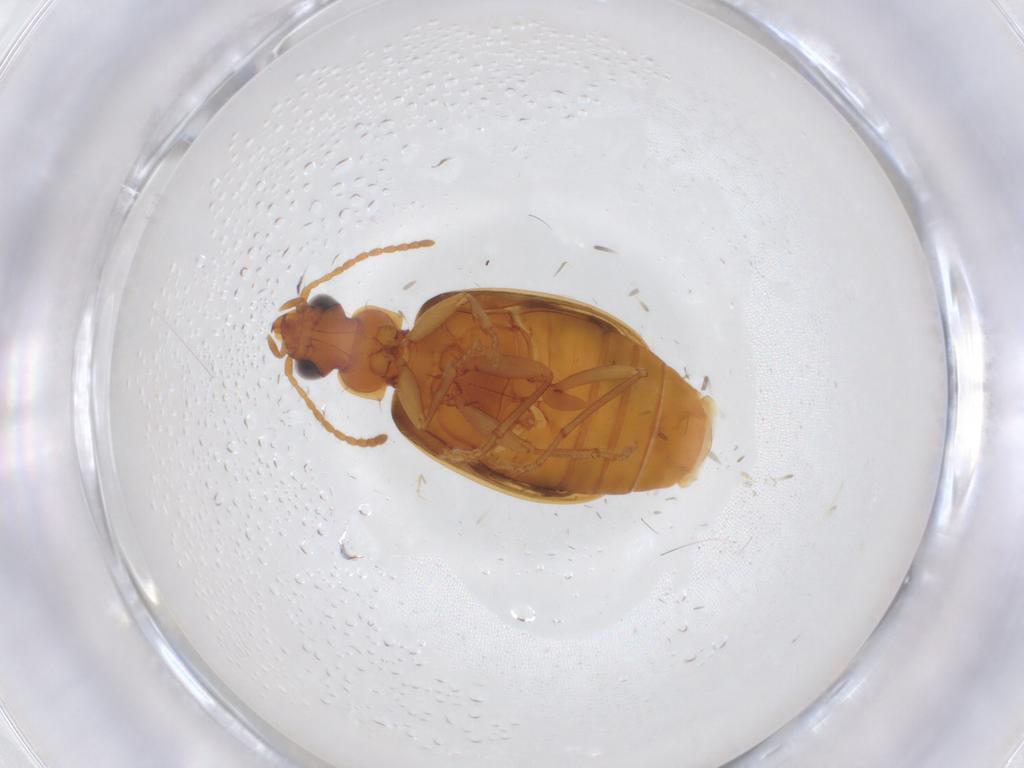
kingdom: Animalia
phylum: Arthropoda
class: Insecta
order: Coleoptera
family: Carabidae
